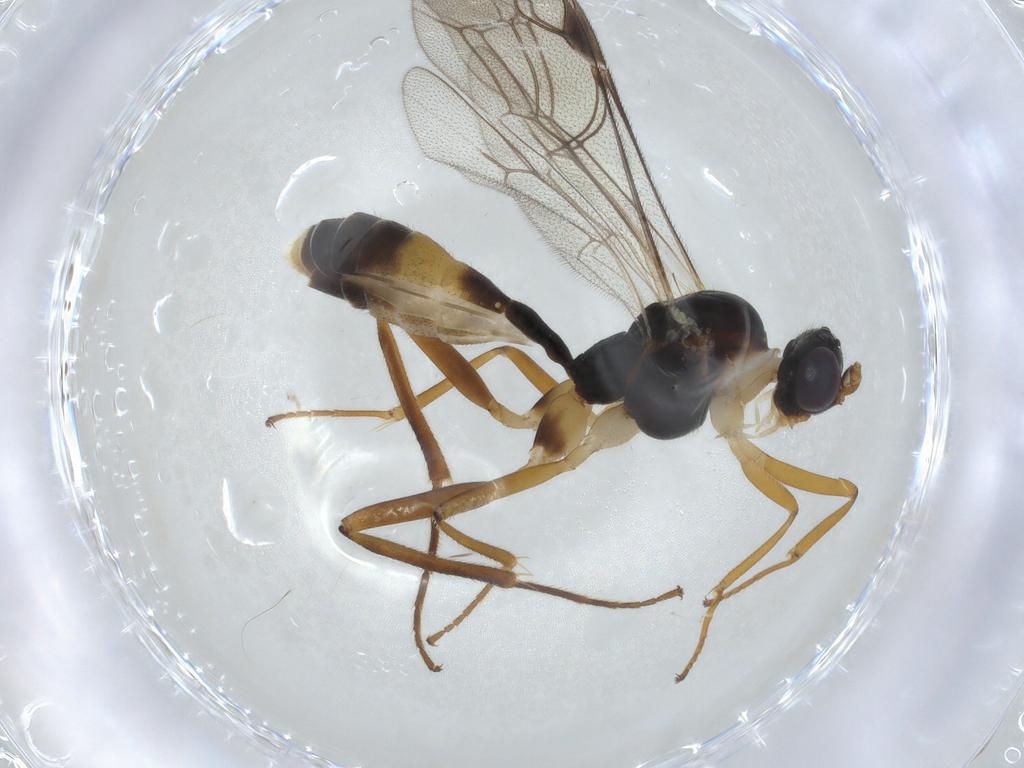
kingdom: Animalia
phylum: Arthropoda
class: Insecta
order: Hymenoptera
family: Ichneumonidae
